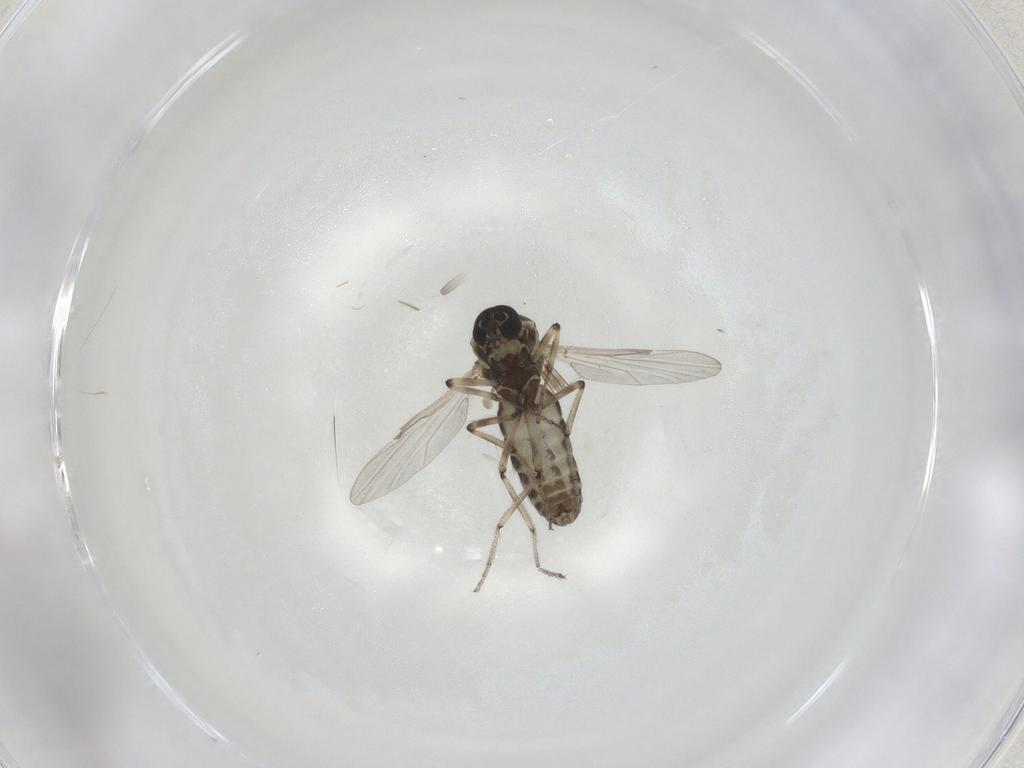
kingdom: Animalia
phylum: Arthropoda
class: Insecta
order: Diptera
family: Ceratopogonidae
